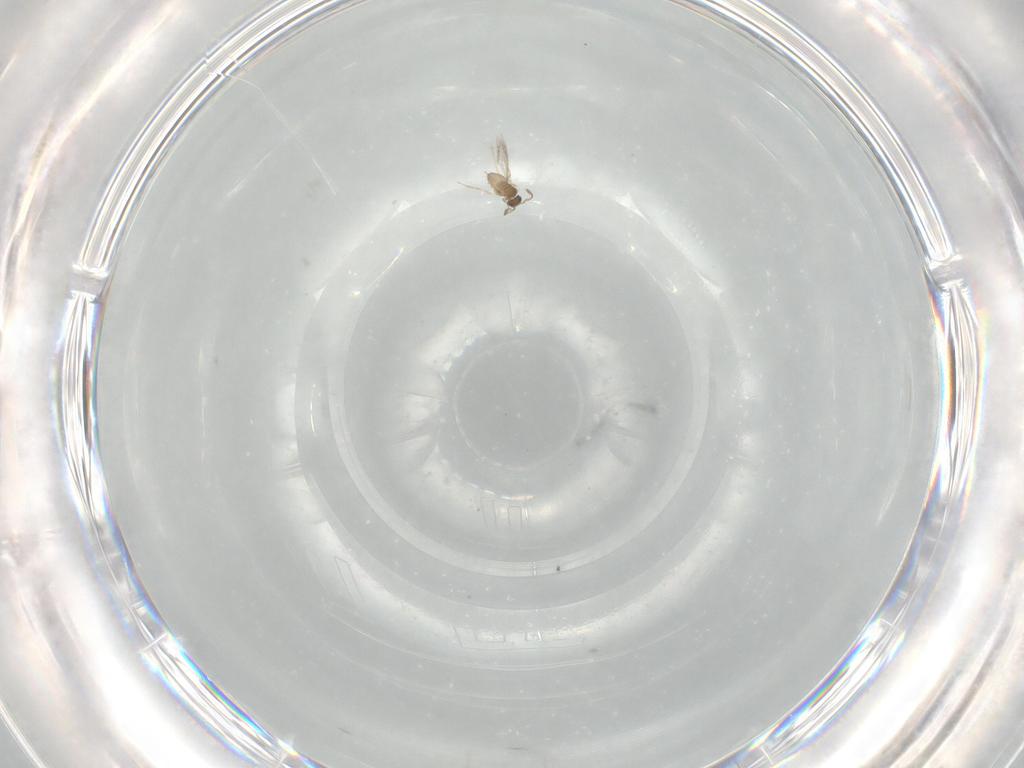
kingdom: Animalia
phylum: Arthropoda
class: Insecta
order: Hymenoptera
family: Mymaridae
